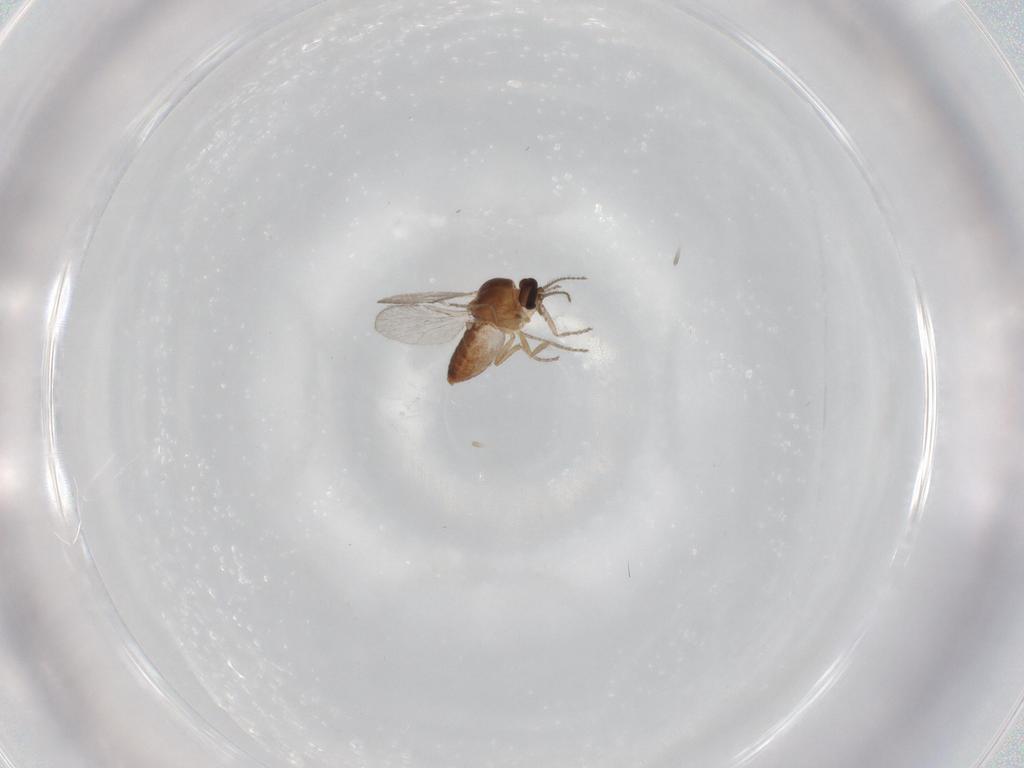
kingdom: Animalia
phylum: Arthropoda
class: Insecta
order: Diptera
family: Ceratopogonidae
